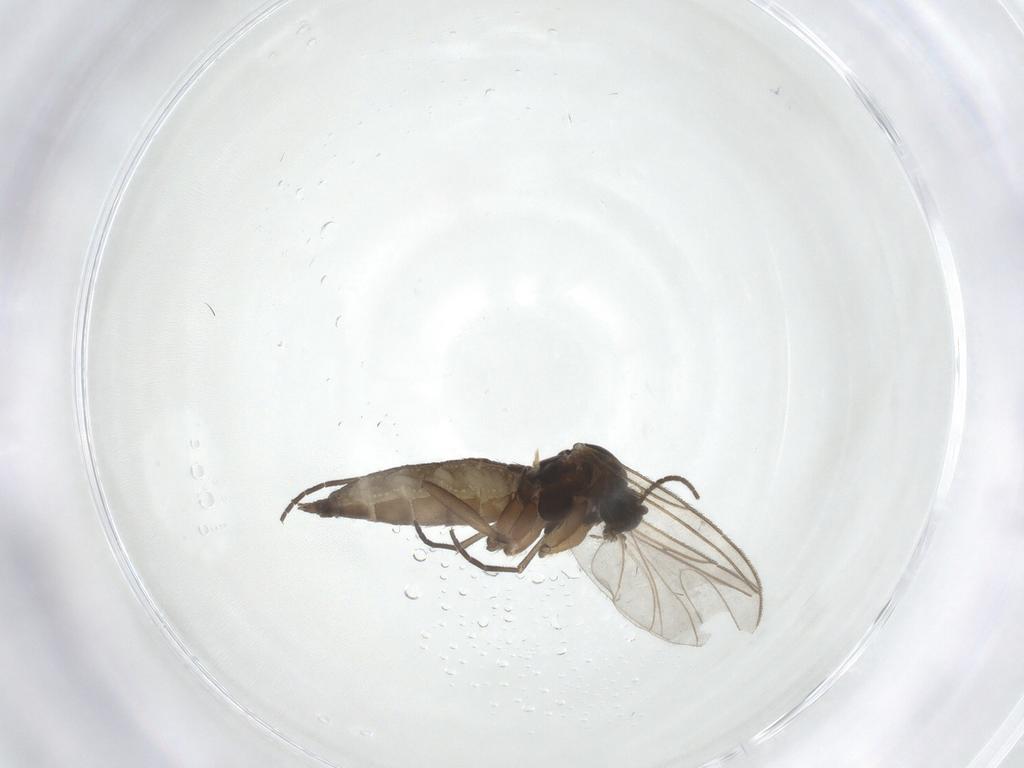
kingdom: Animalia
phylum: Arthropoda
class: Insecta
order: Diptera
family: Sciaridae
